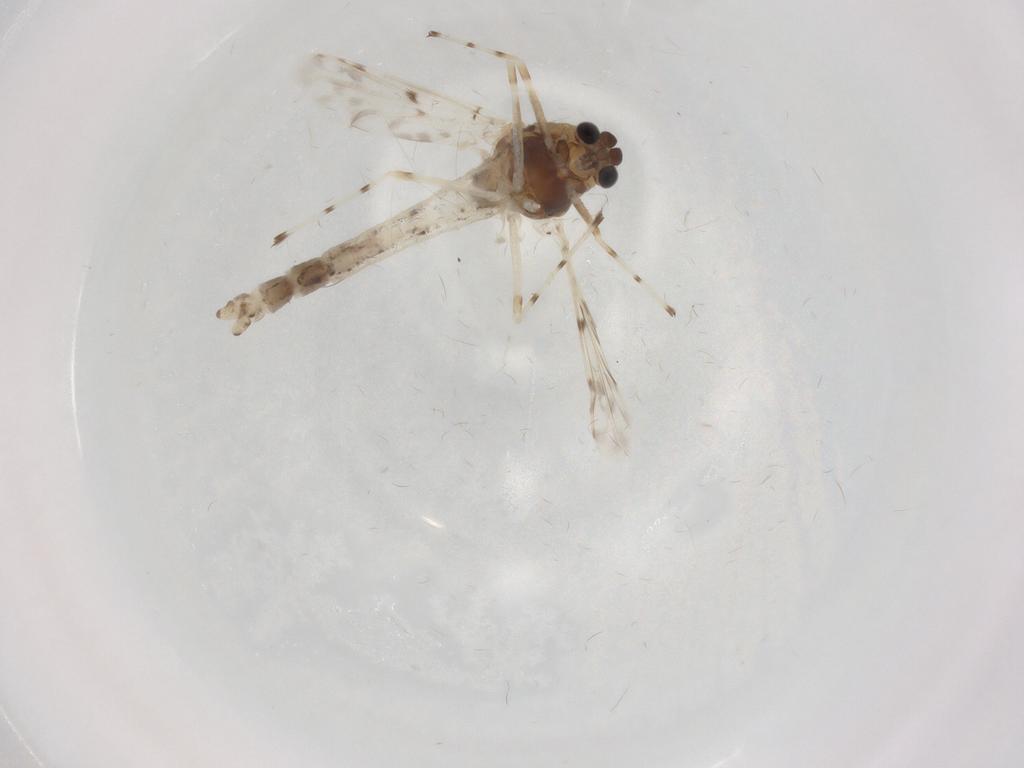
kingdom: Animalia
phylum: Arthropoda
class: Insecta
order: Diptera
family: Chironomidae
